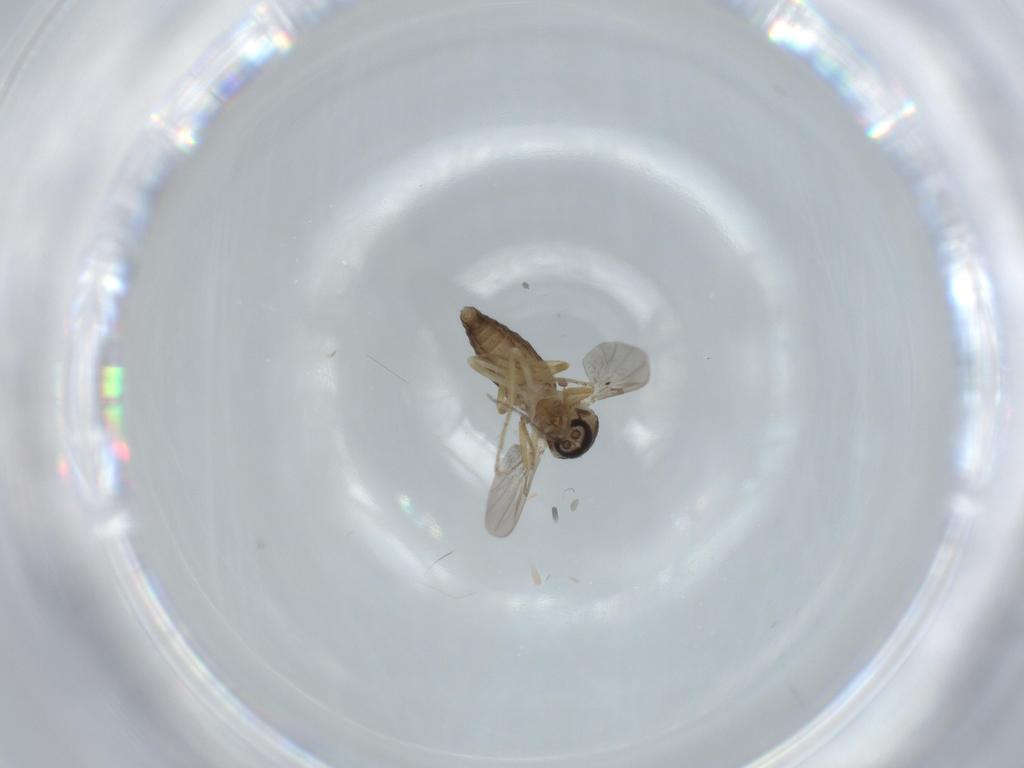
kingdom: Animalia
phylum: Arthropoda
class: Insecta
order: Diptera
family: Ceratopogonidae
